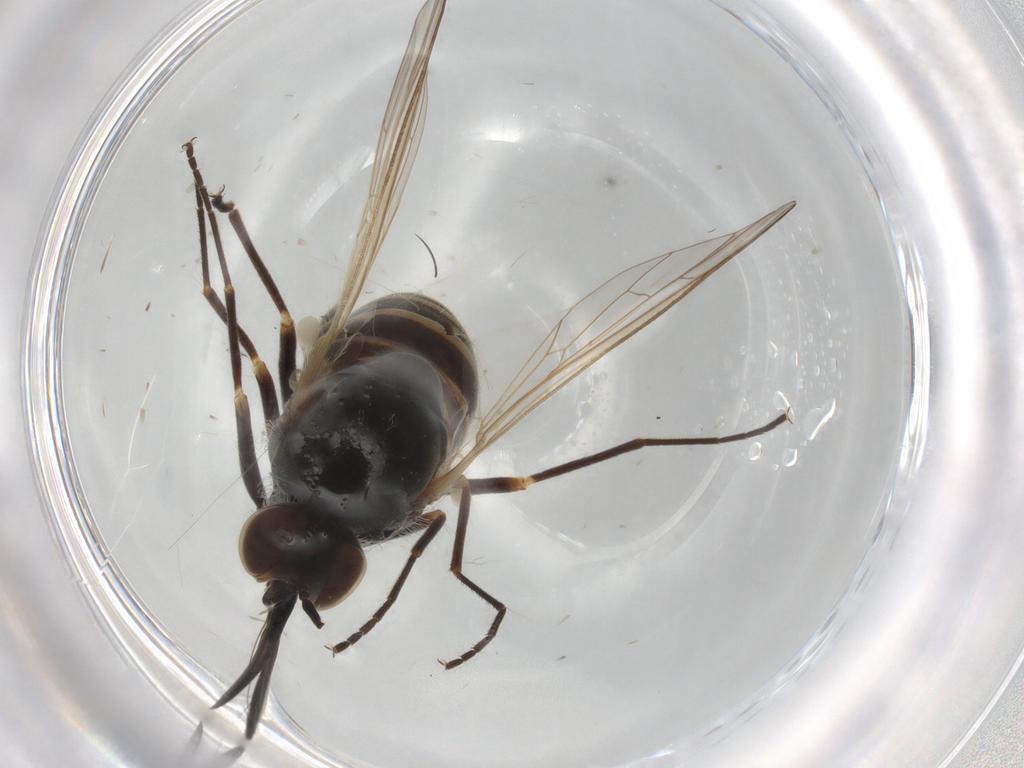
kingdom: Animalia
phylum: Arthropoda
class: Insecta
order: Diptera
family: Bombyliidae
